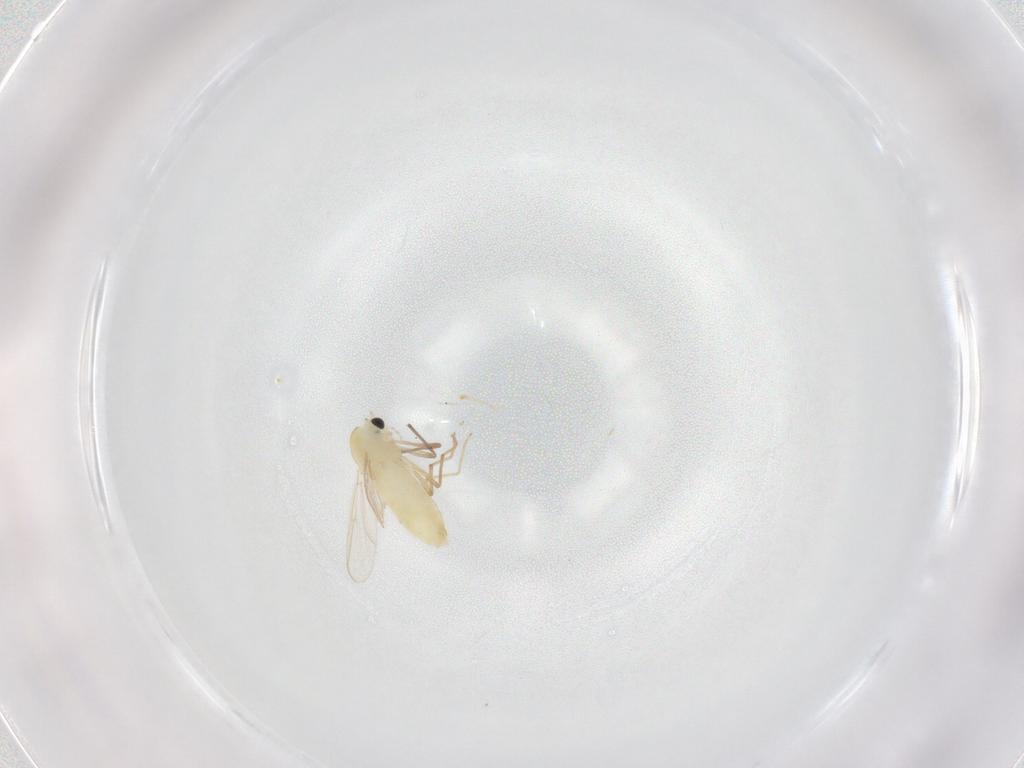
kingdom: Animalia
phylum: Arthropoda
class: Insecta
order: Diptera
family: Chironomidae
